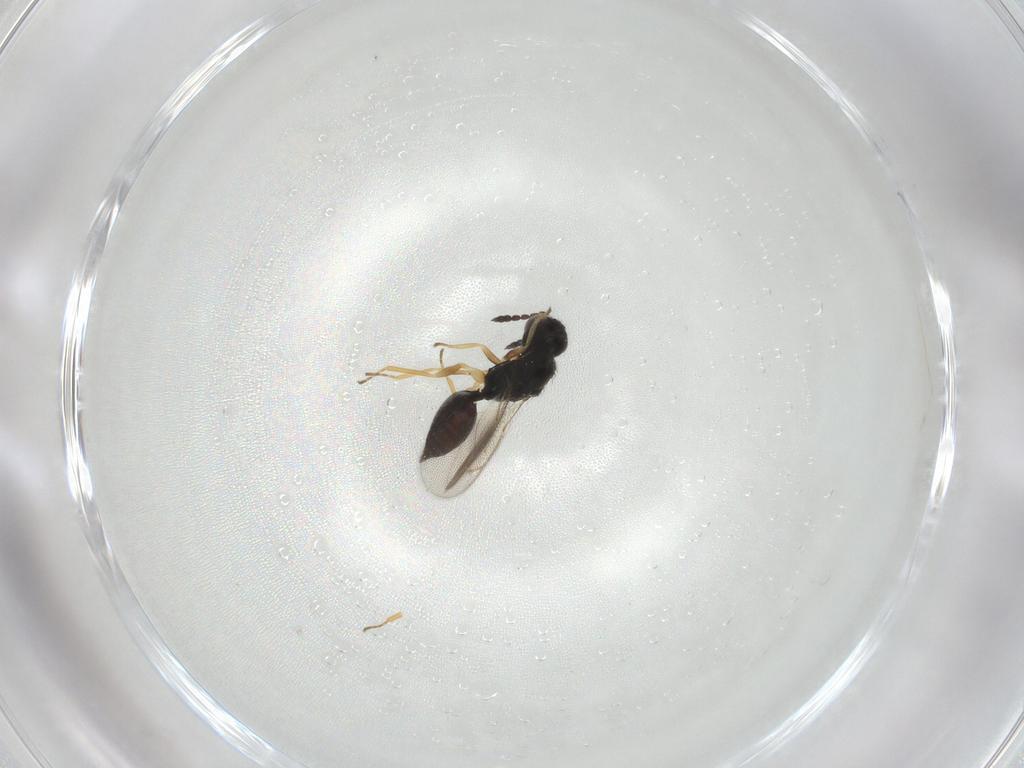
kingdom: Animalia
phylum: Arthropoda
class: Insecta
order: Hymenoptera
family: Eulophidae
